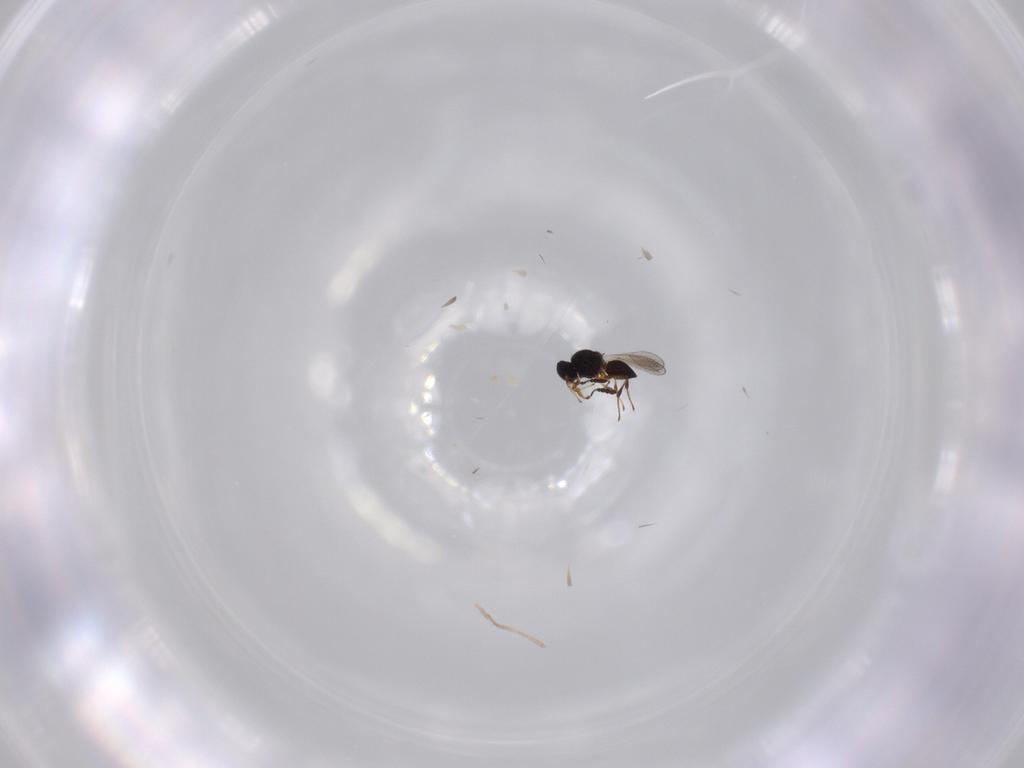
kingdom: Animalia
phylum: Arthropoda
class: Insecta
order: Hymenoptera
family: Platygastridae
